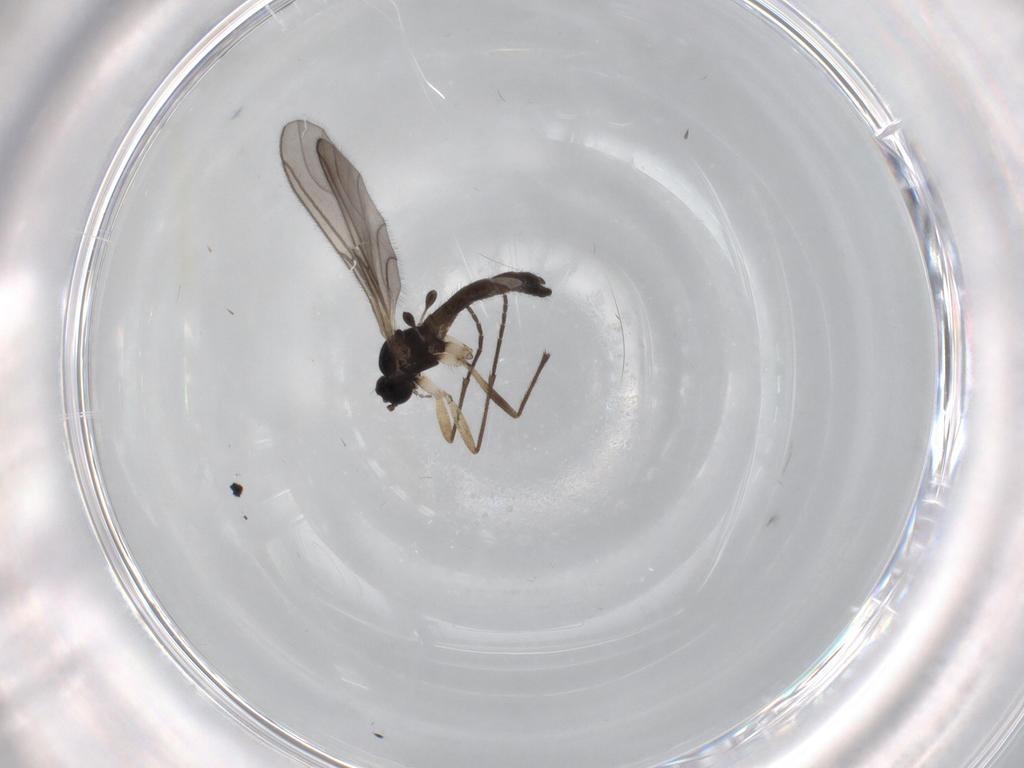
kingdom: Animalia
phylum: Arthropoda
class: Insecta
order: Diptera
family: Sciaridae
